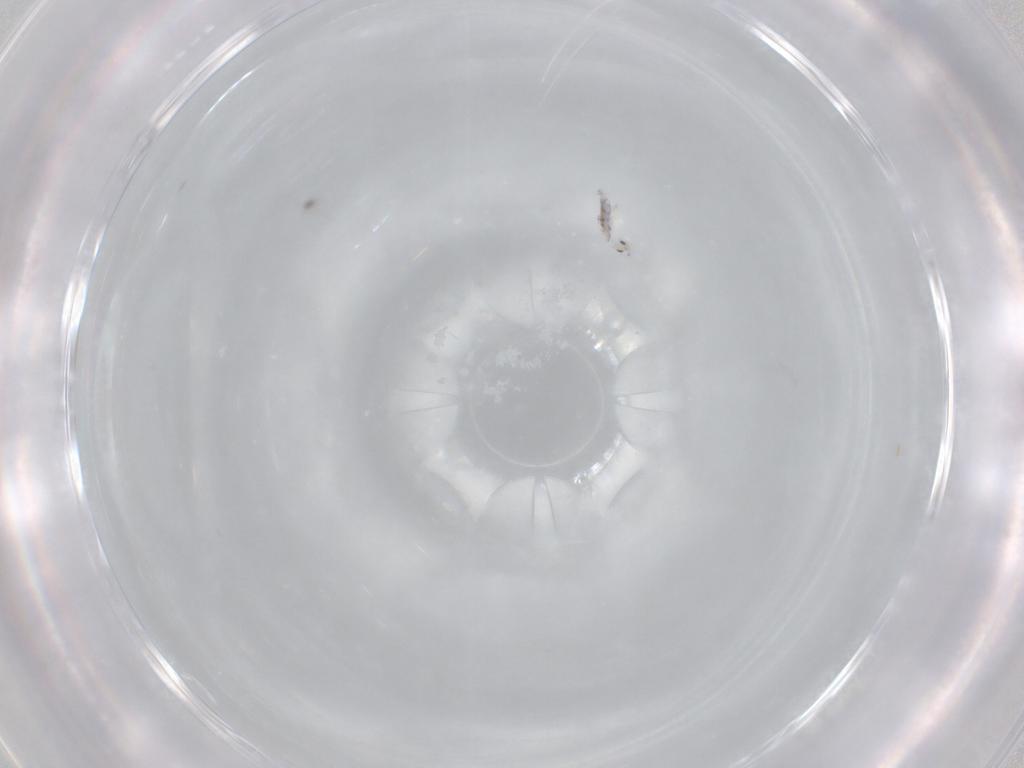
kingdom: Animalia
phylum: Arthropoda
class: Collembola
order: Entomobryomorpha
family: Entomobryidae
